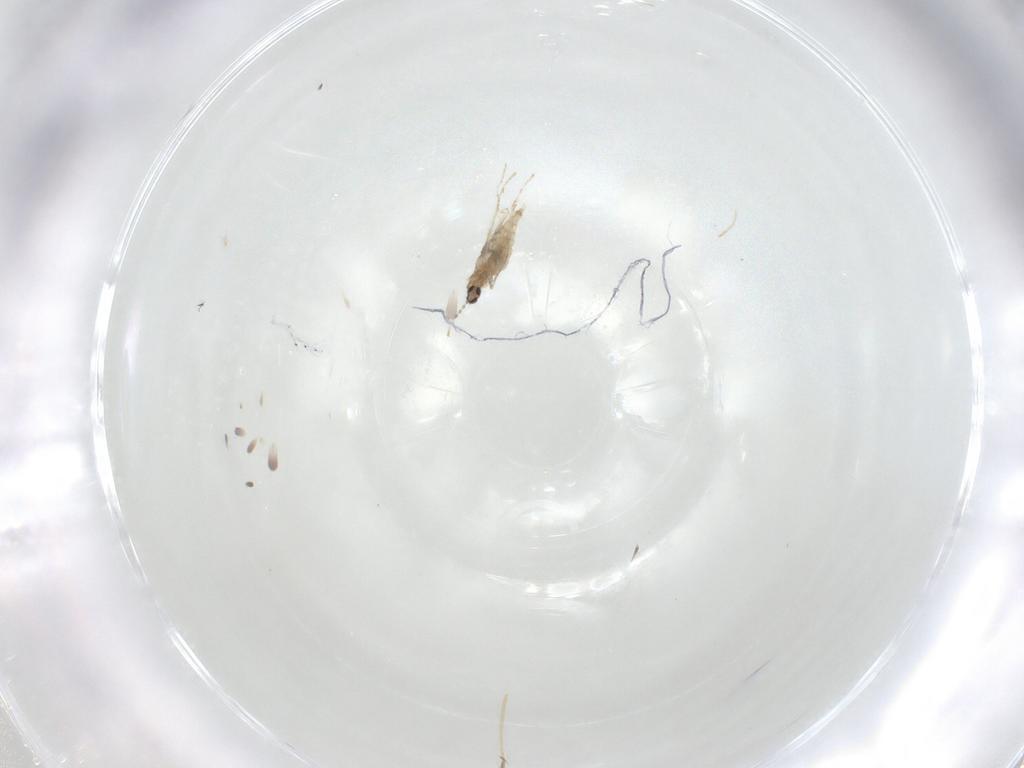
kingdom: Animalia
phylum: Arthropoda
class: Insecta
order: Diptera
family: Cecidomyiidae
